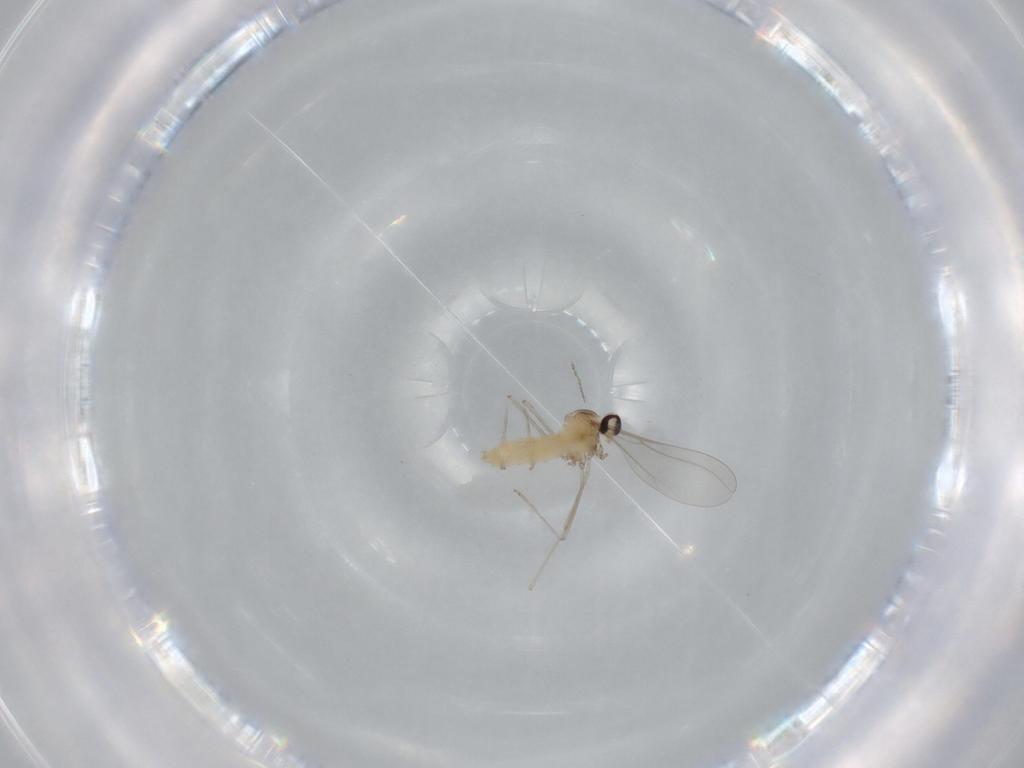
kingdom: Animalia
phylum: Arthropoda
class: Insecta
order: Diptera
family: Cecidomyiidae
